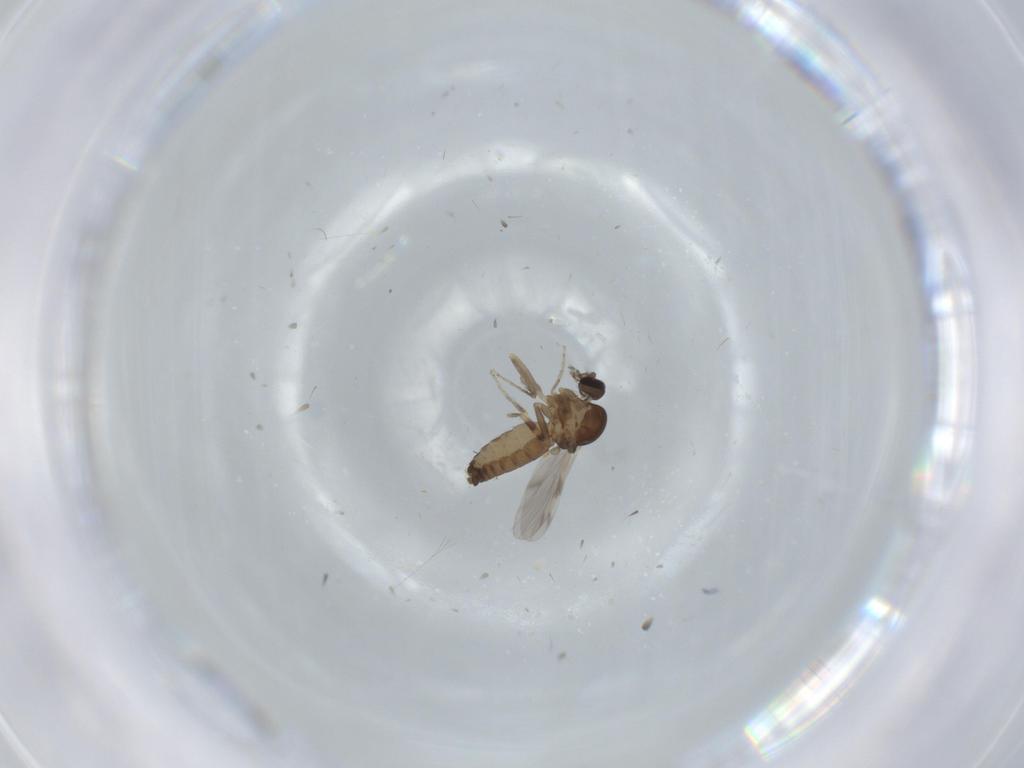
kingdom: Animalia
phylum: Arthropoda
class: Insecta
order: Diptera
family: Ceratopogonidae
